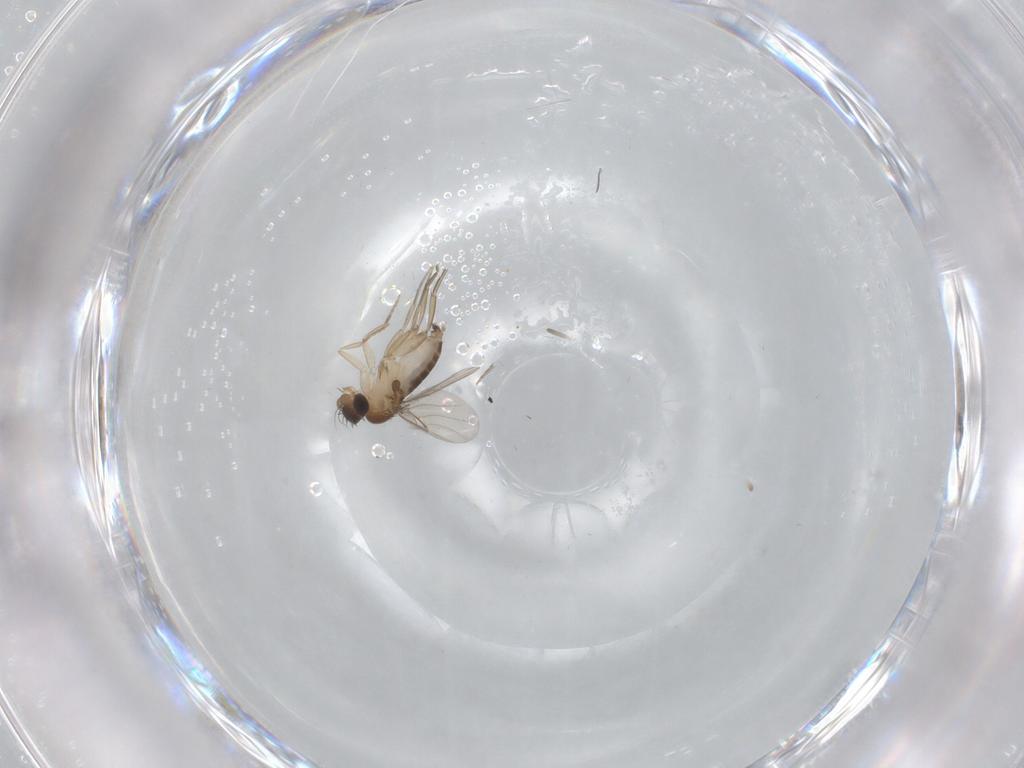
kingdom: Animalia
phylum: Arthropoda
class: Insecta
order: Diptera
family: Phoridae
